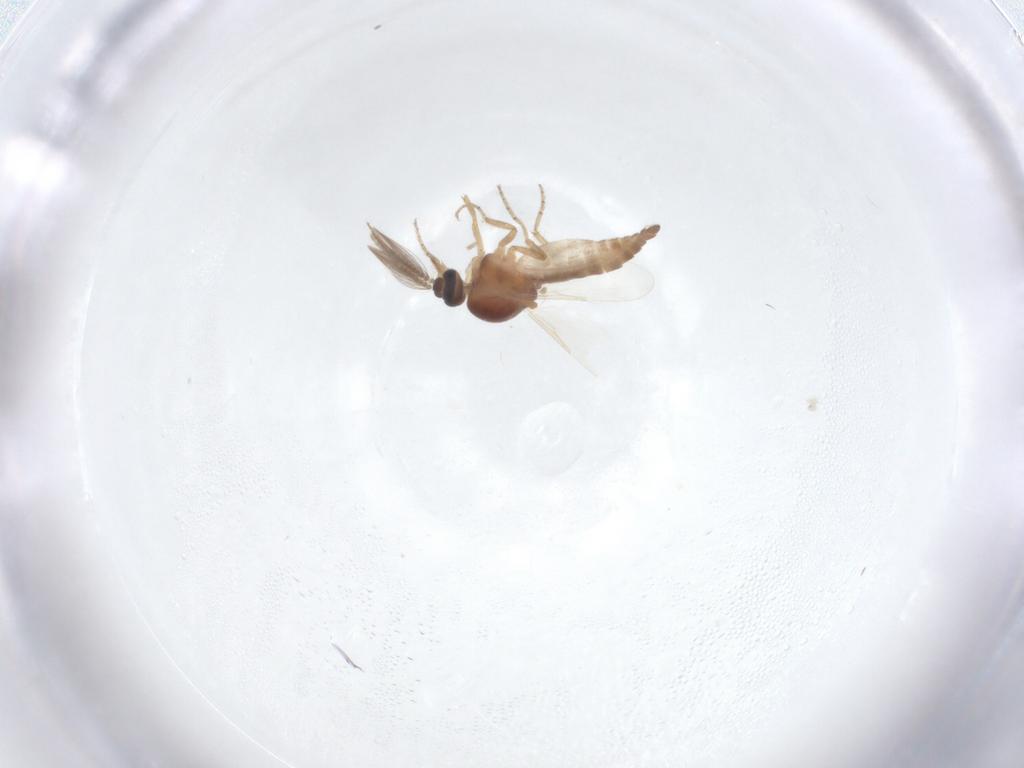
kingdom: Animalia
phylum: Arthropoda
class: Insecta
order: Diptera
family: Ceratopogonidae
